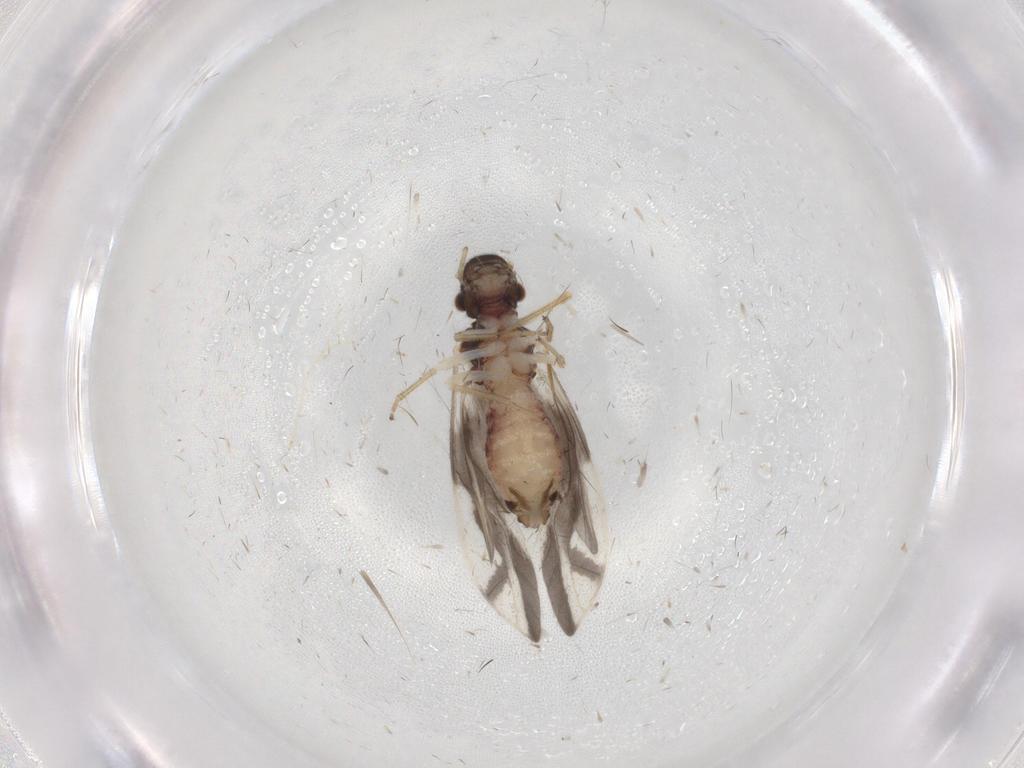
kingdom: Animalia
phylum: Arthropoda
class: Insecta
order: Psocodea
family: Caeciliusidae
